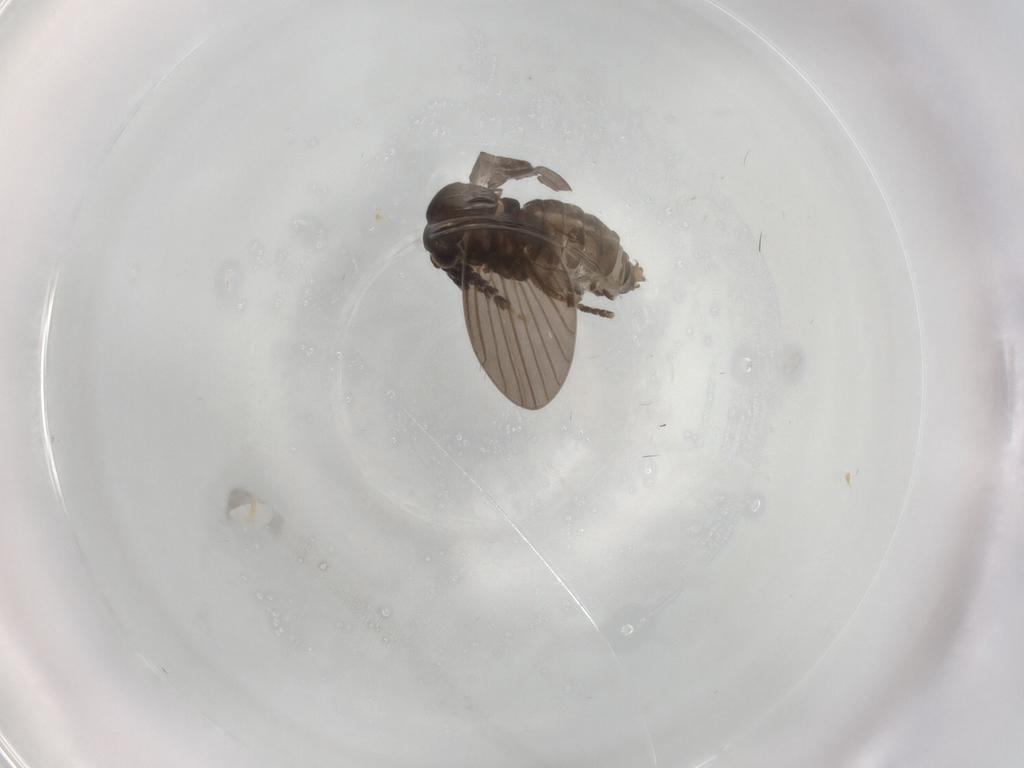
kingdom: Animalia
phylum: Arthropoda
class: Insecta
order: Diptera
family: Psychodidae
